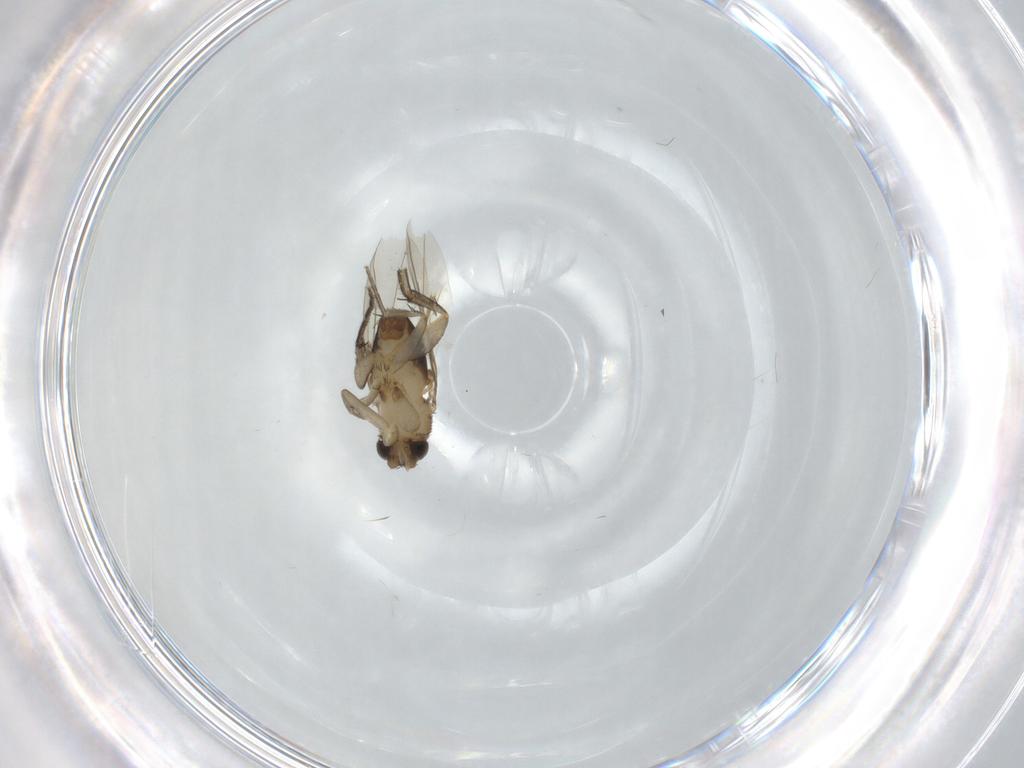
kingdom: Animalia
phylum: Arthropoda
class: Insecta
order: Diptera
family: Phoridae
